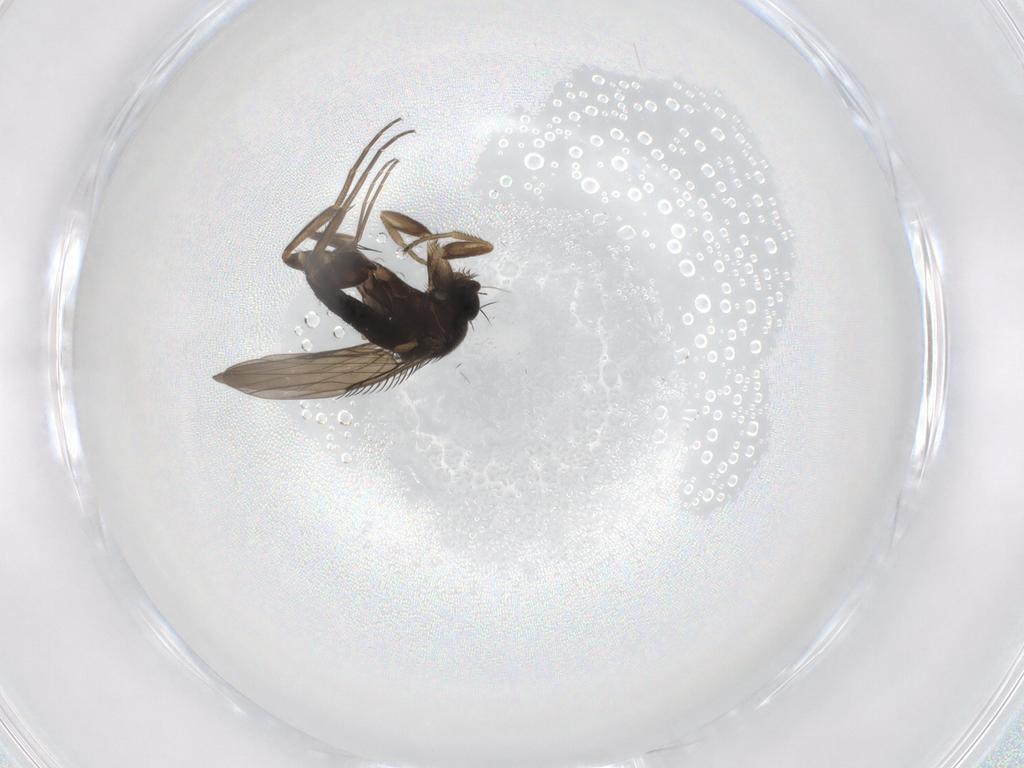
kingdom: Animalia
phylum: Arthropoda
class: Insecta
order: Diptera
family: Phoridae
